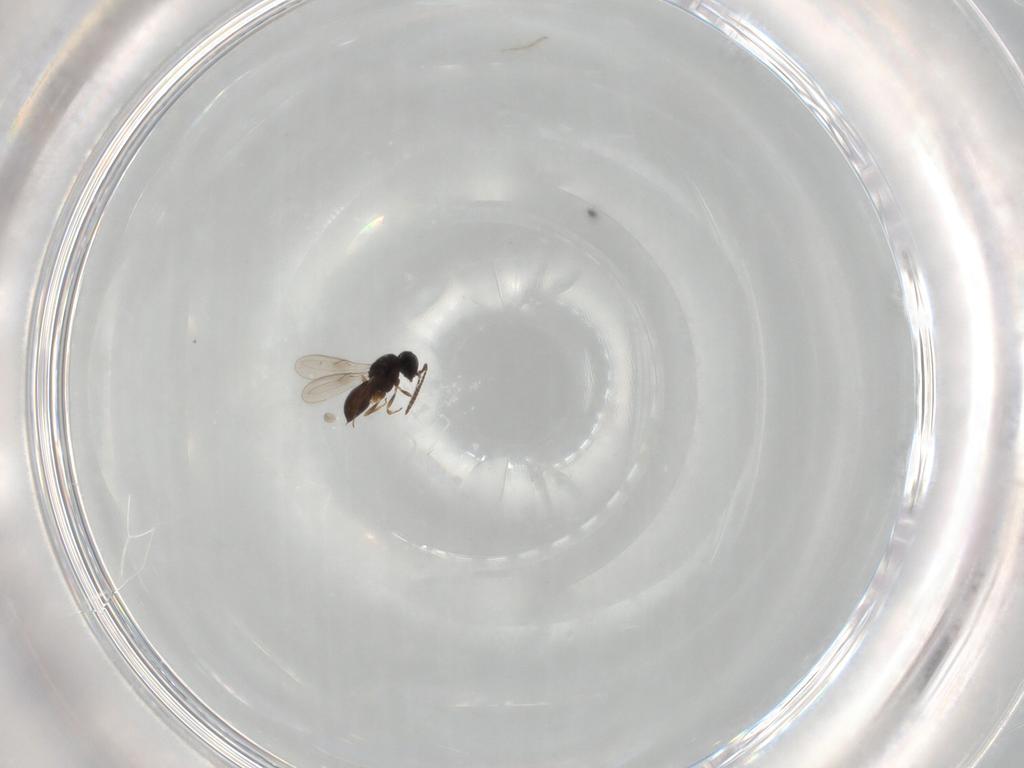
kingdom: Animalia
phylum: Arthropoda
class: Insecta
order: Hymenoptera
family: Scelionidae
